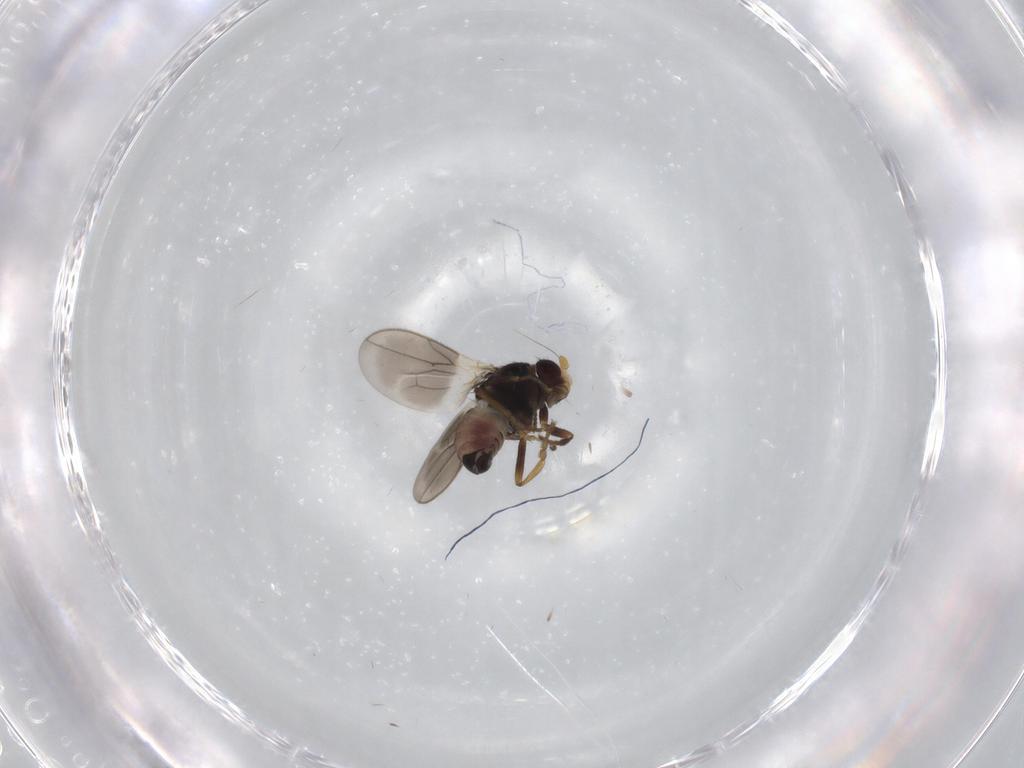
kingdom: Animalia
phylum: Arthropoda
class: Insecta
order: Diptera
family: Sphaeroceridae
